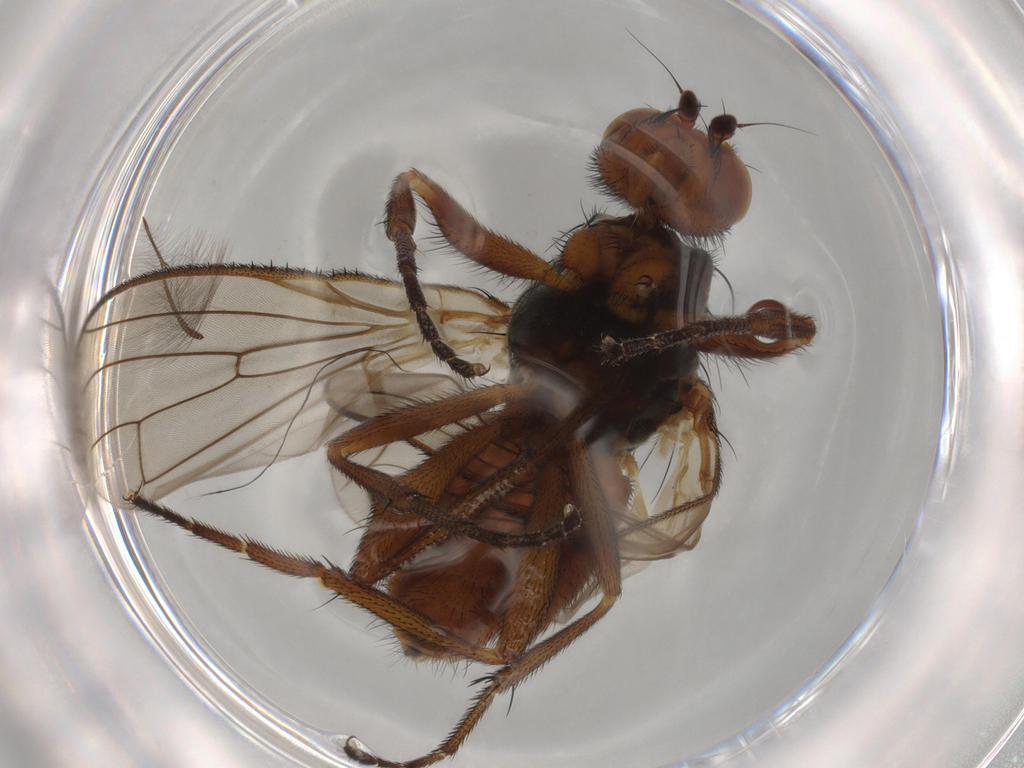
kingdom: Animalia
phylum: Arthropoda
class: Insecta
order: Diptera
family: Heleomyzidae
